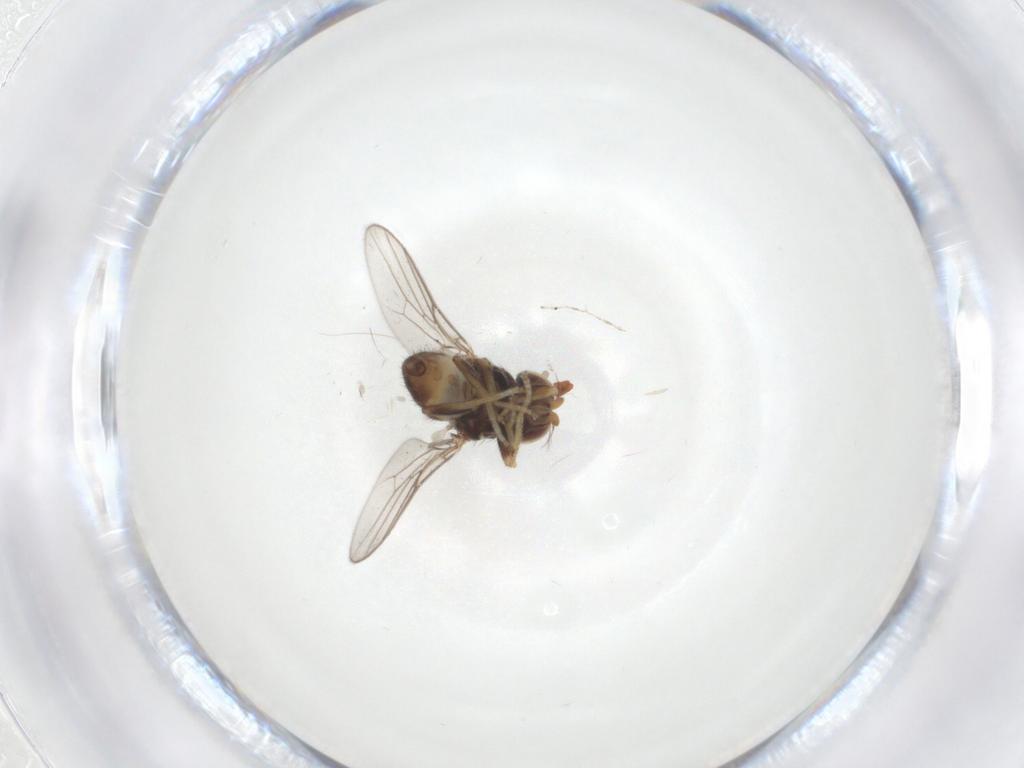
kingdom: Animalia
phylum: Arthropoda
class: Insecta
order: Diptera
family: Chloropidae
